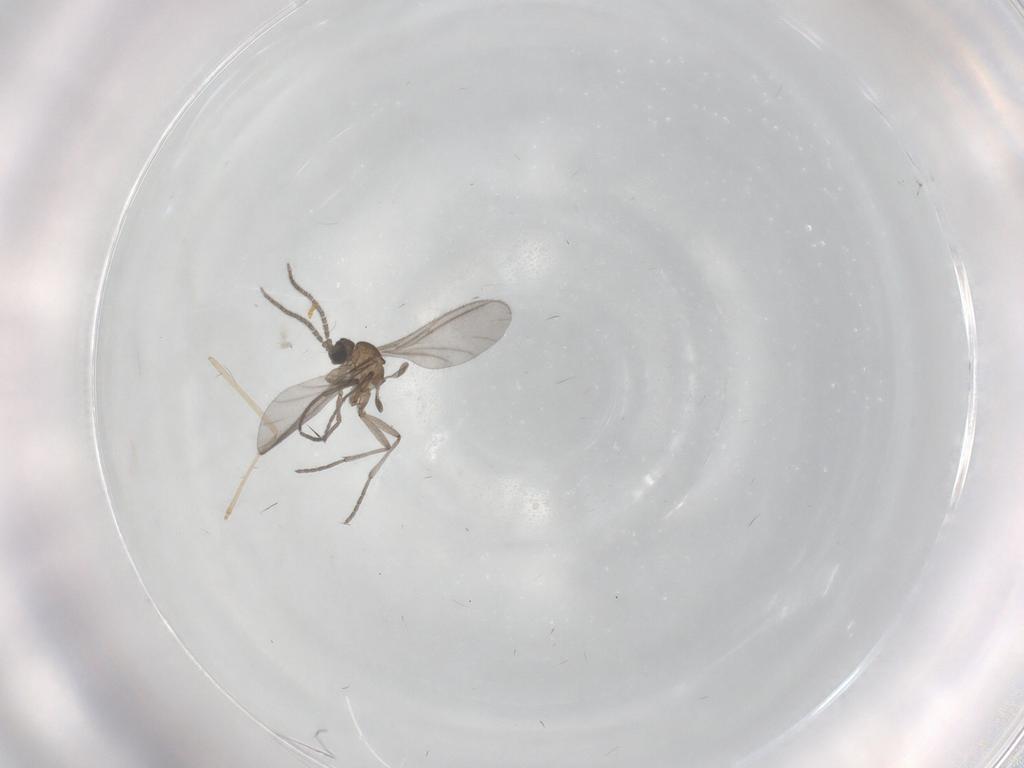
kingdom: Animalia
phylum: Arthropoda
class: Insecta
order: Diptera
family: Sciaridae
